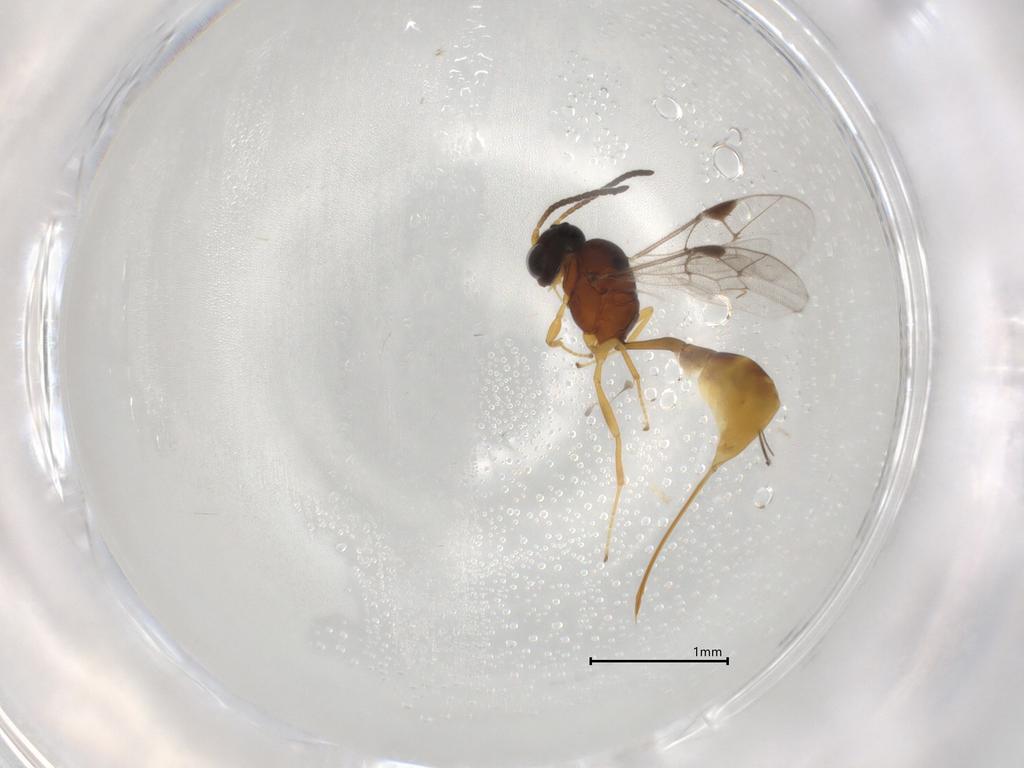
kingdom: Animalia
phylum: Arthropoda
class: Insecta
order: Hymenoptera
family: Ichneumonidae
